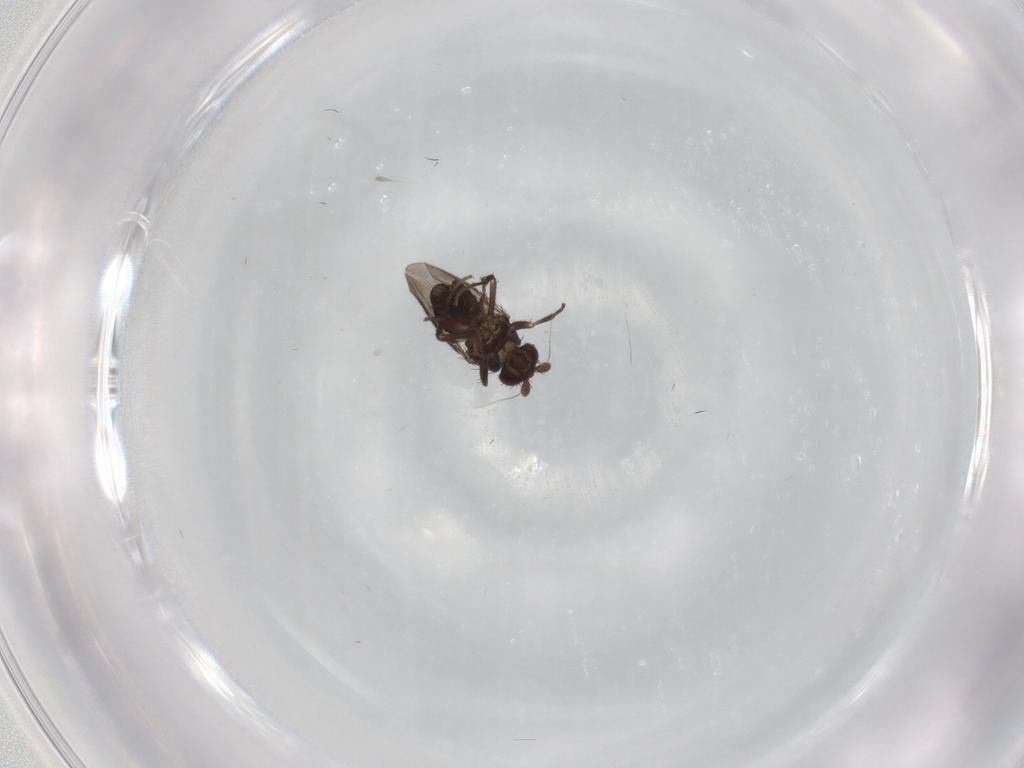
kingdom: Animalia
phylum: Arthropoda
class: Insecta
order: Diptera
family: Sphaeroceridae
